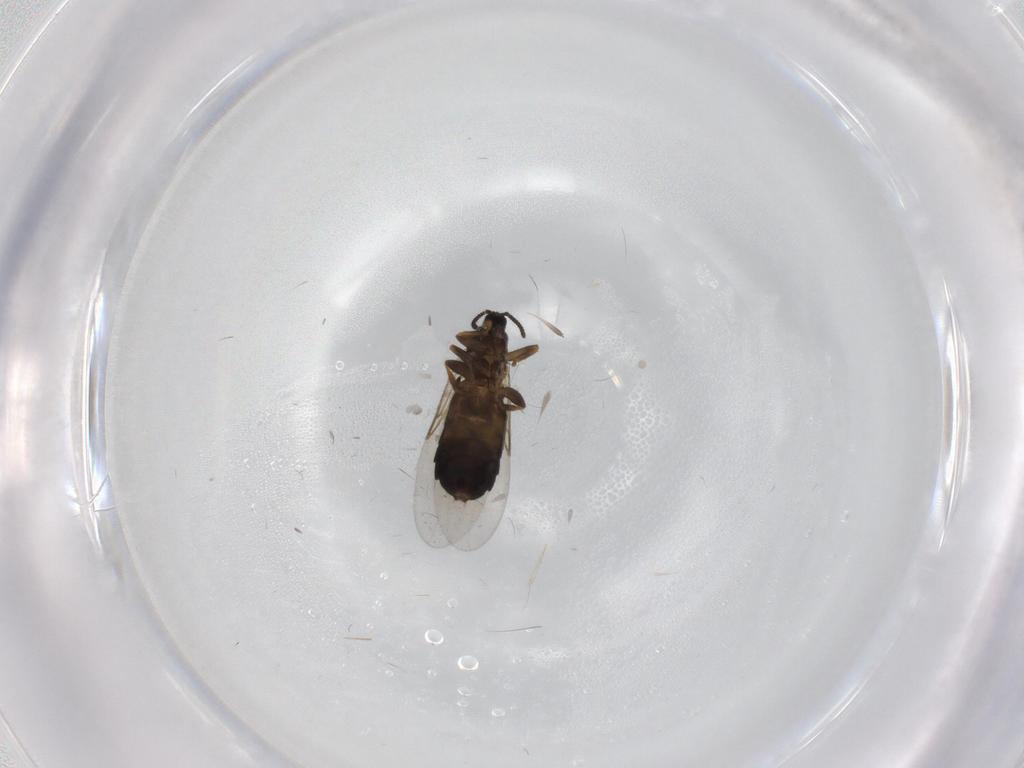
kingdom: Animalia
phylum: Arthropoda
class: Insecta
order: Diptera
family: Scatopsidae
